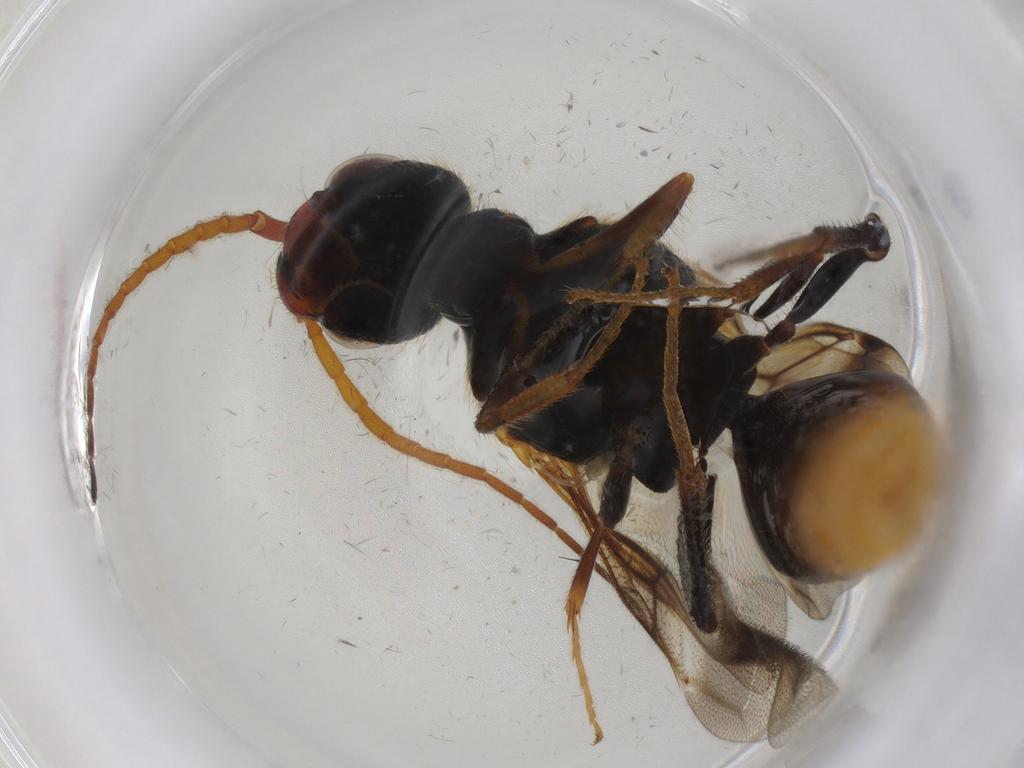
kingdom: Animalia
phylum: Arthropoda
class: Insecta
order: Hymenoptera
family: Bethylidae
